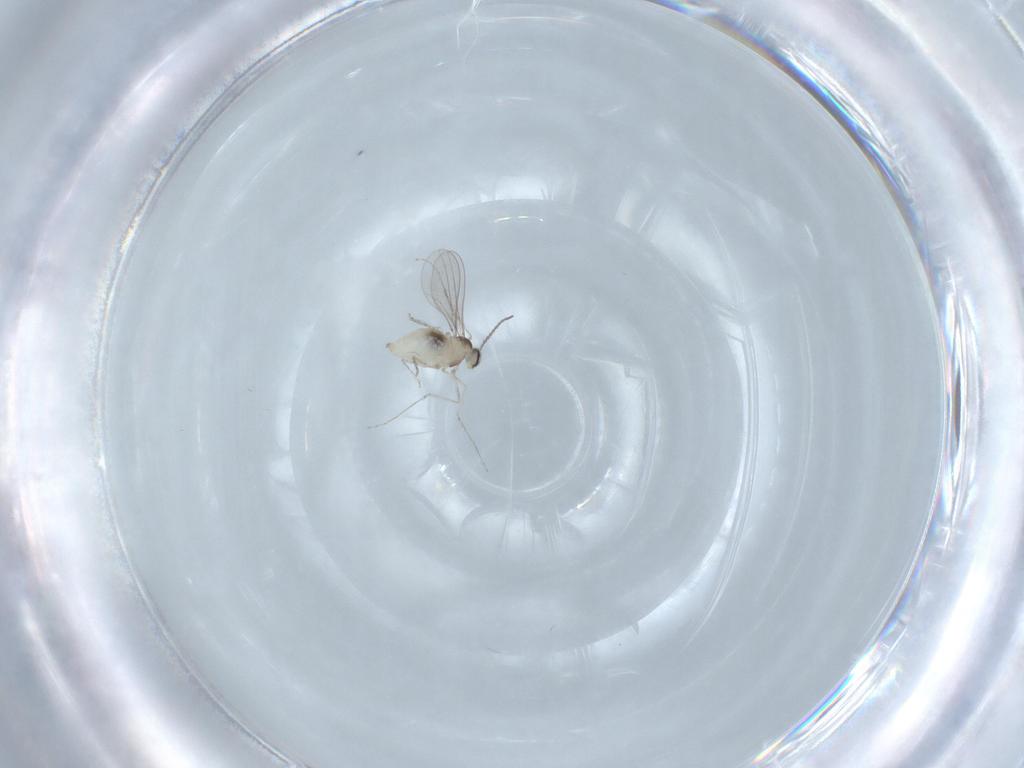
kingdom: Animalia
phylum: Arthropoda
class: Insecta
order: Diptera
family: Cecidomyiidae
